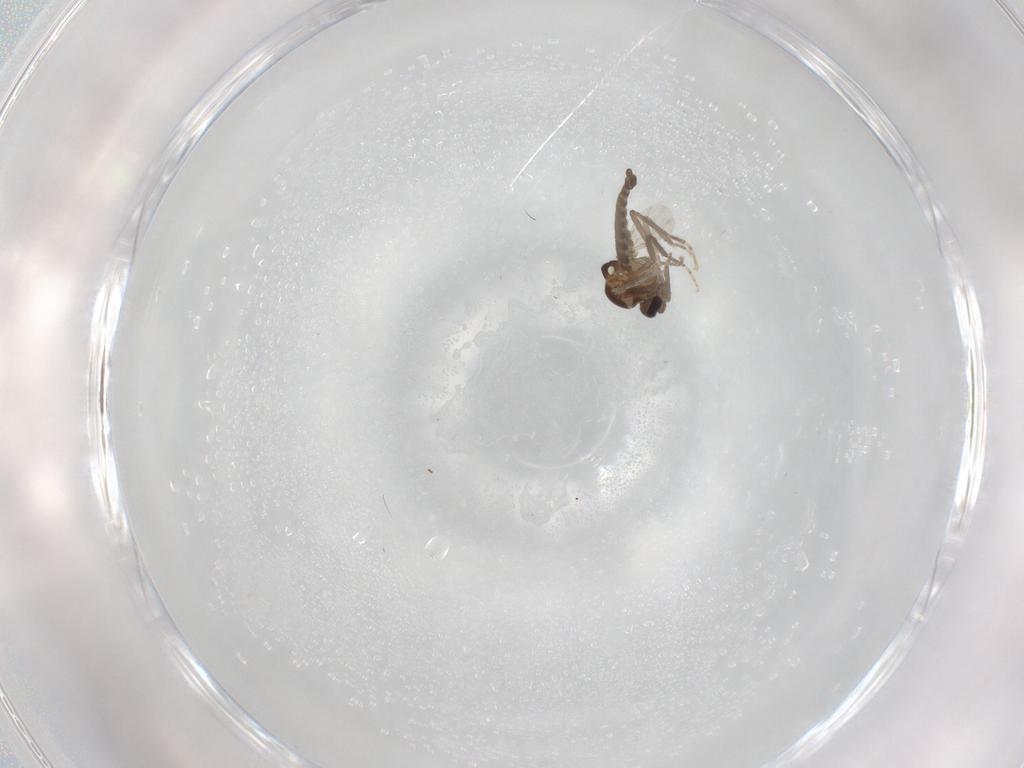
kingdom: Animalia
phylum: Arthropoda
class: Insecta
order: Diptera
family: Ceratopogonidae
